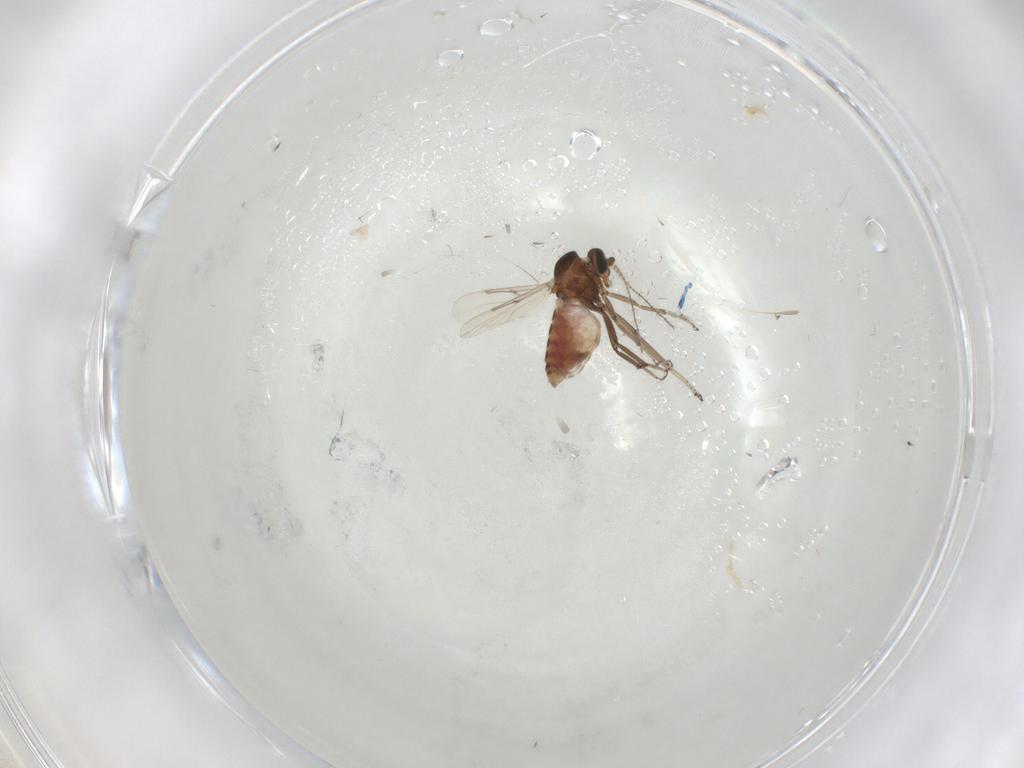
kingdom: Animalia
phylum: Arthropoda
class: Insecta
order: Diptera
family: Ceratopogonidae
